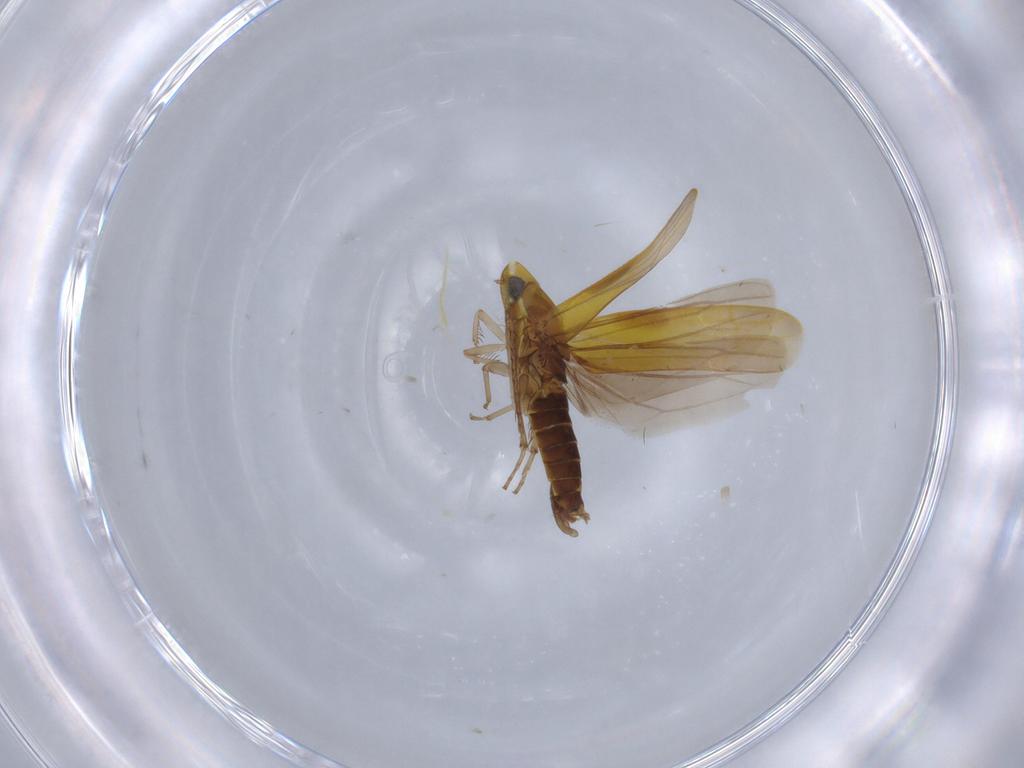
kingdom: Animalia
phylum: Arthropoda
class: Insecta
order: Hemiptera
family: Cicadellidae
